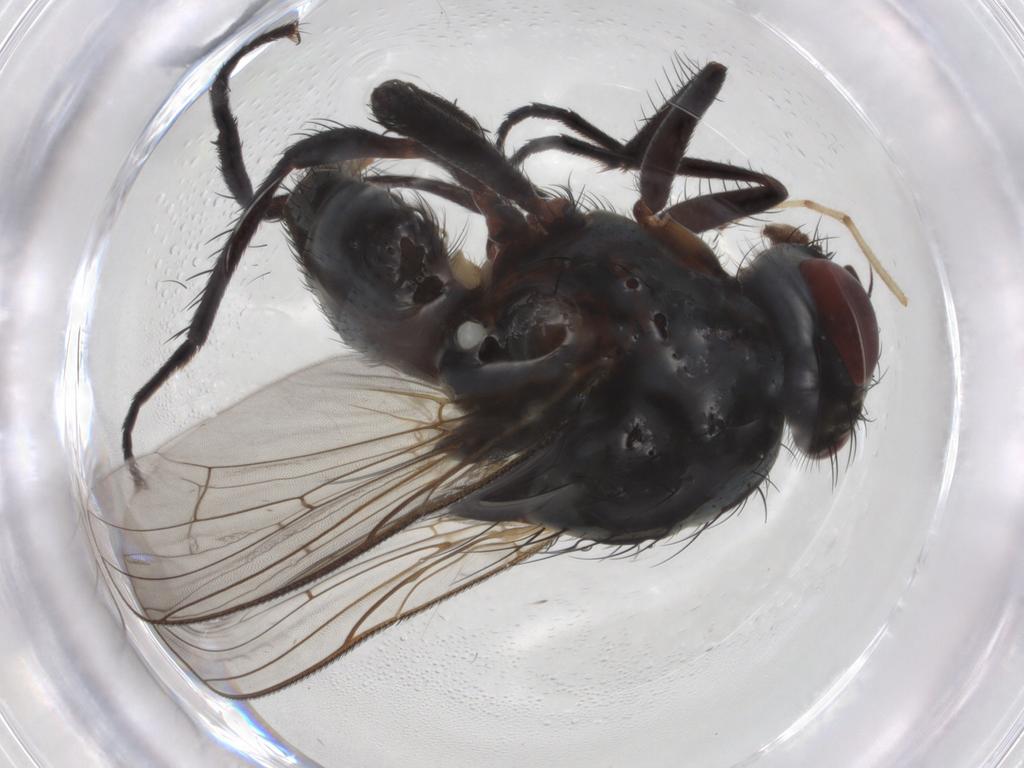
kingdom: Animalia
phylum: Arthropoda
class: Insecta
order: Diptera
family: Anthomyiidae
